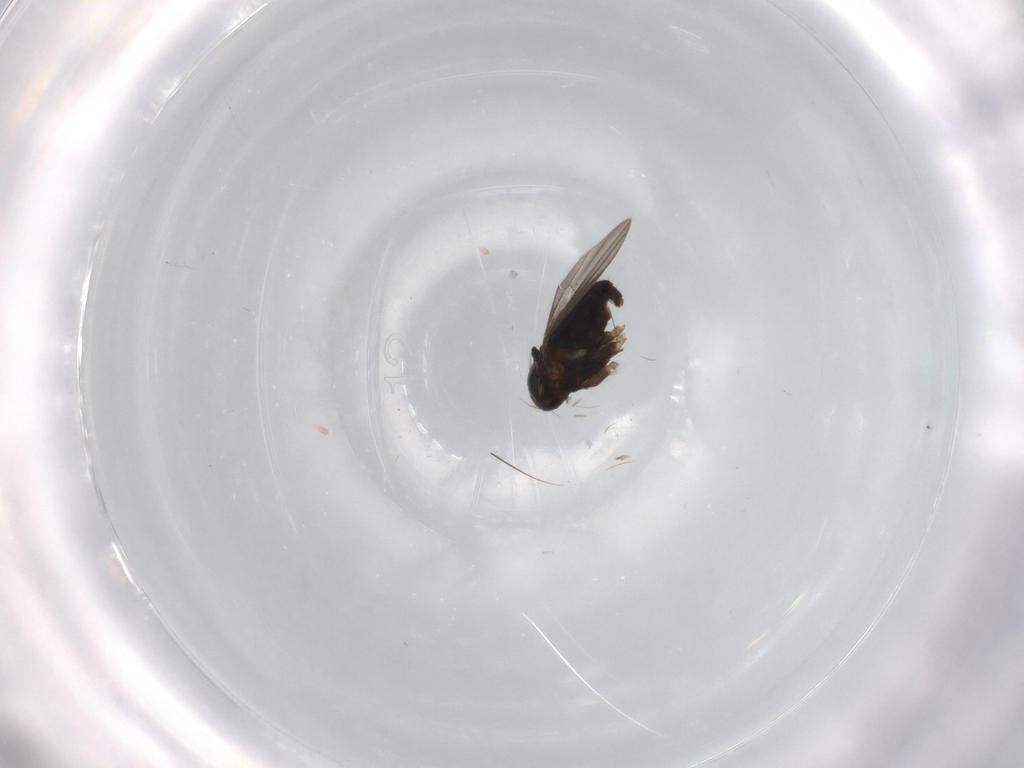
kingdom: Animalia
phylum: Arthropoda
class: Insecta
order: Diptera
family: Dolichopodidae
